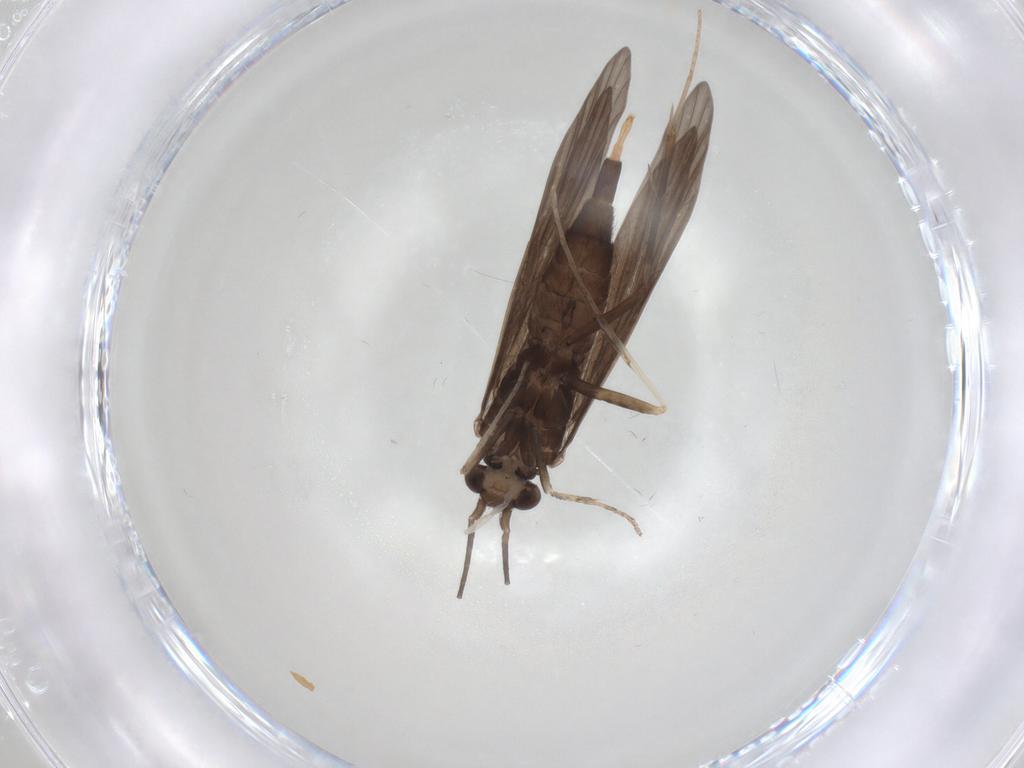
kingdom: Animalia
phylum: Arthropoda
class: Insecta
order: Trichoptera
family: Xiphocentronidae
